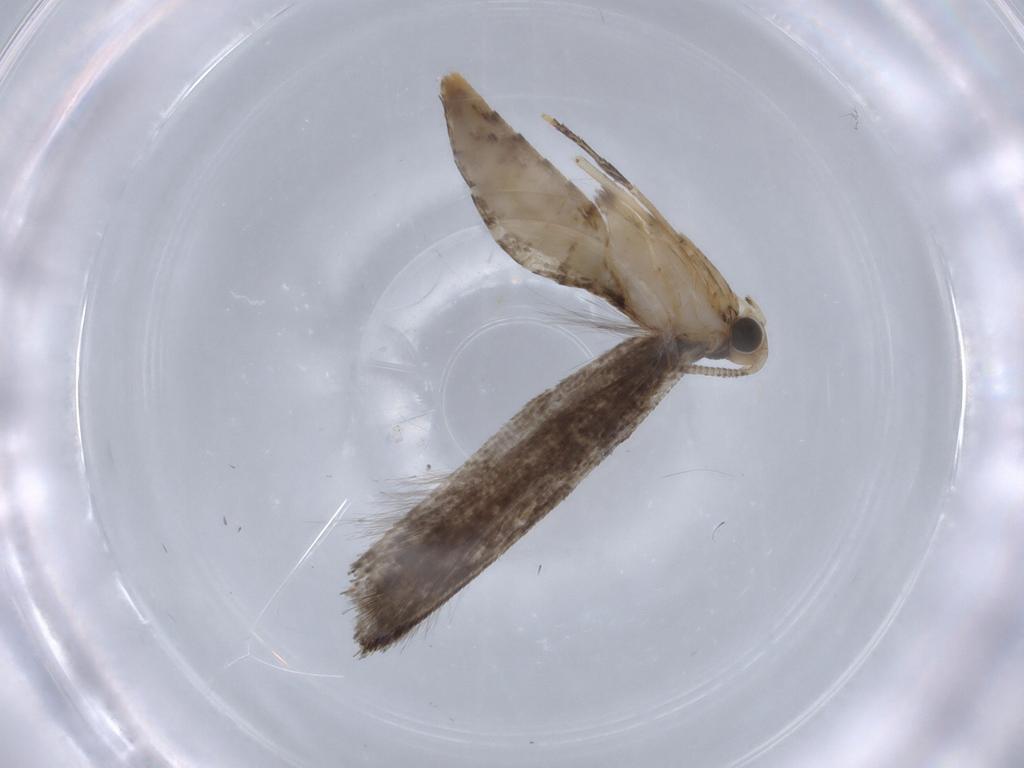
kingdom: Animalia
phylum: Arthropoda
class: Insecta
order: Lepidoptera
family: Tineidae
